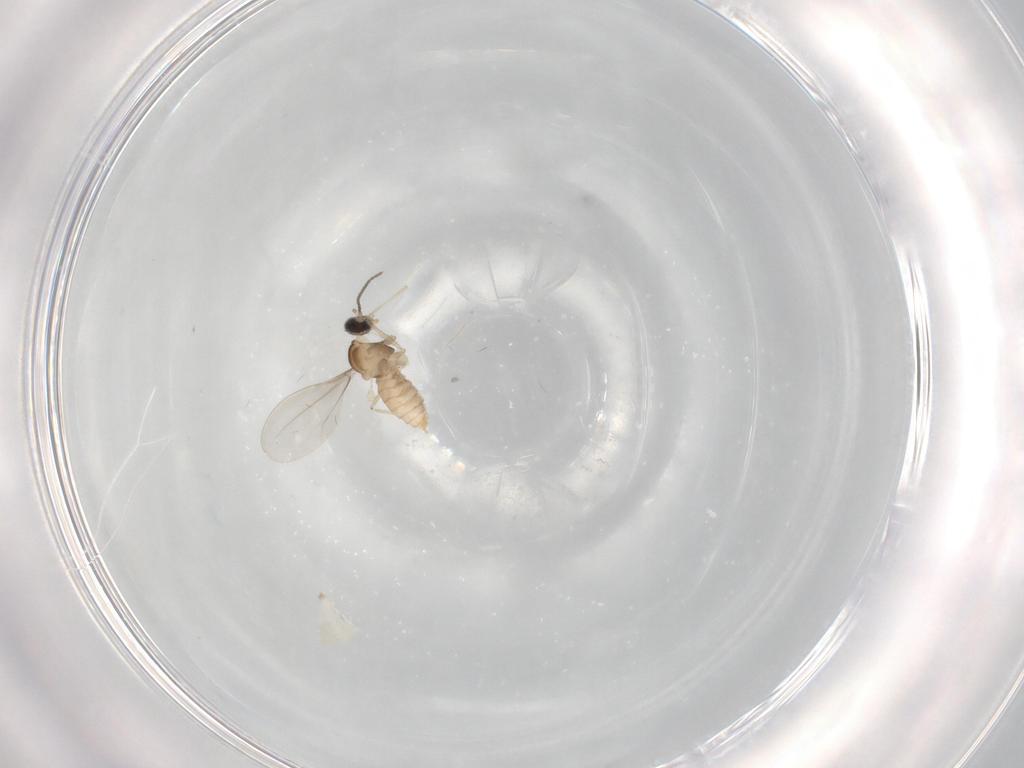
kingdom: Animalia
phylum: Arthropoda
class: Insecta
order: Diptera
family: Cecidomyiidae
